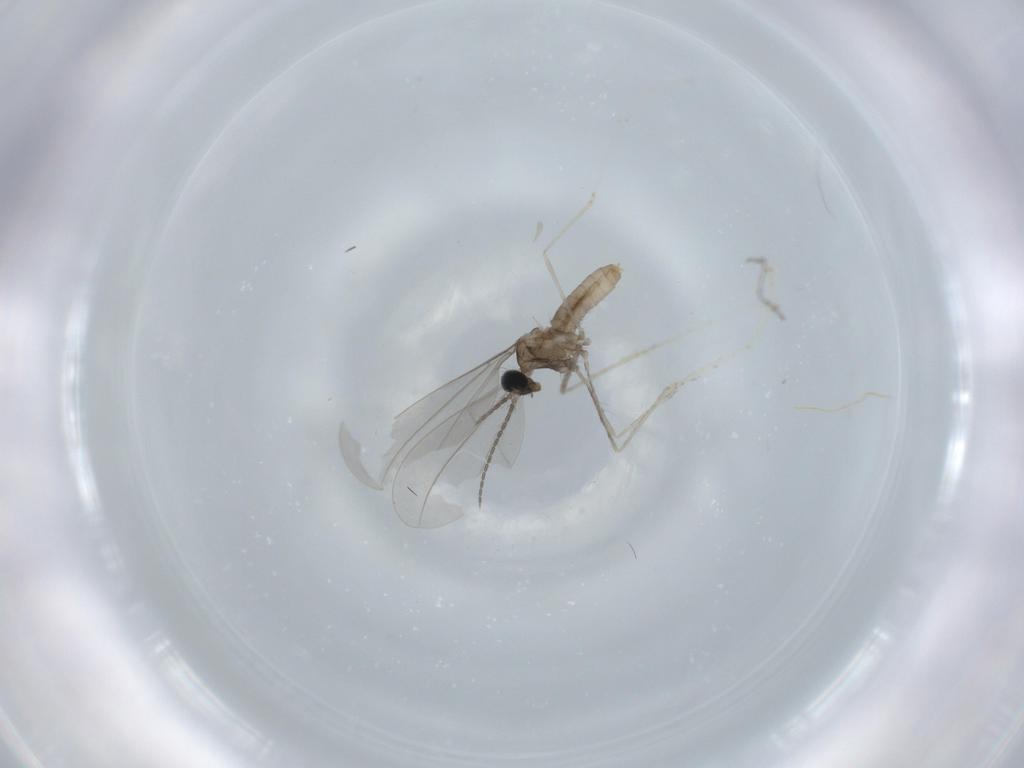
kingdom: Animalia
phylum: Arthropoda
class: Insecta
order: Diptera
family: Cecidomyiidae
